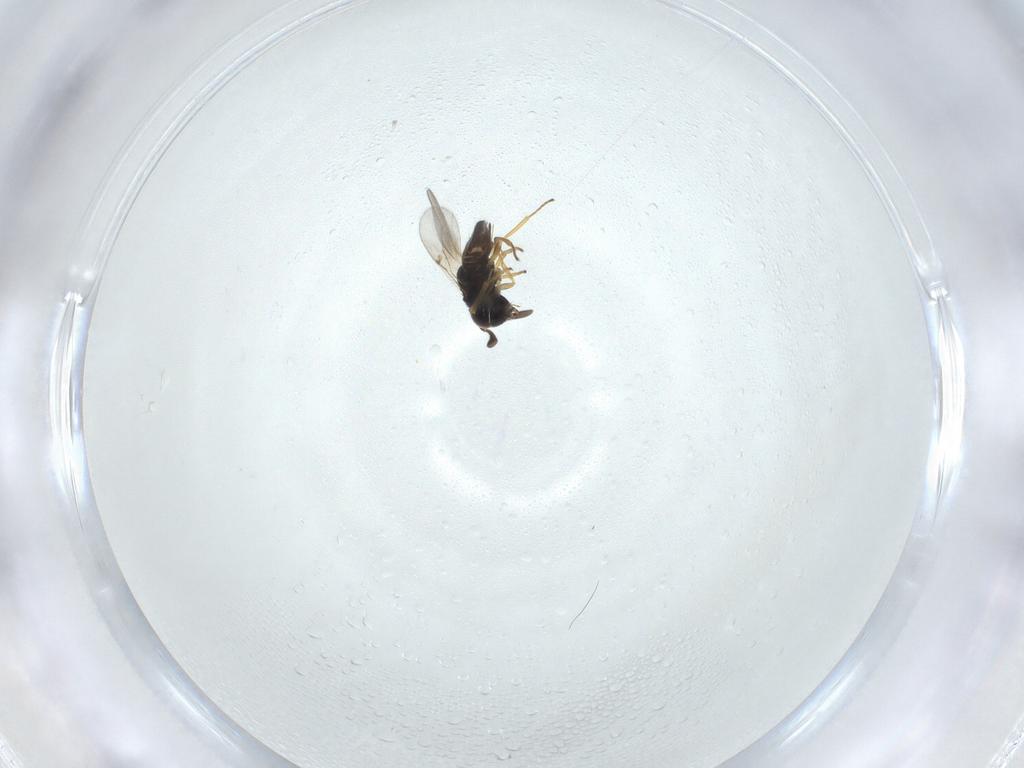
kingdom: Animalia
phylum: Arthropoda
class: Insecta
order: Hymenoptera
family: Encyrtidae
